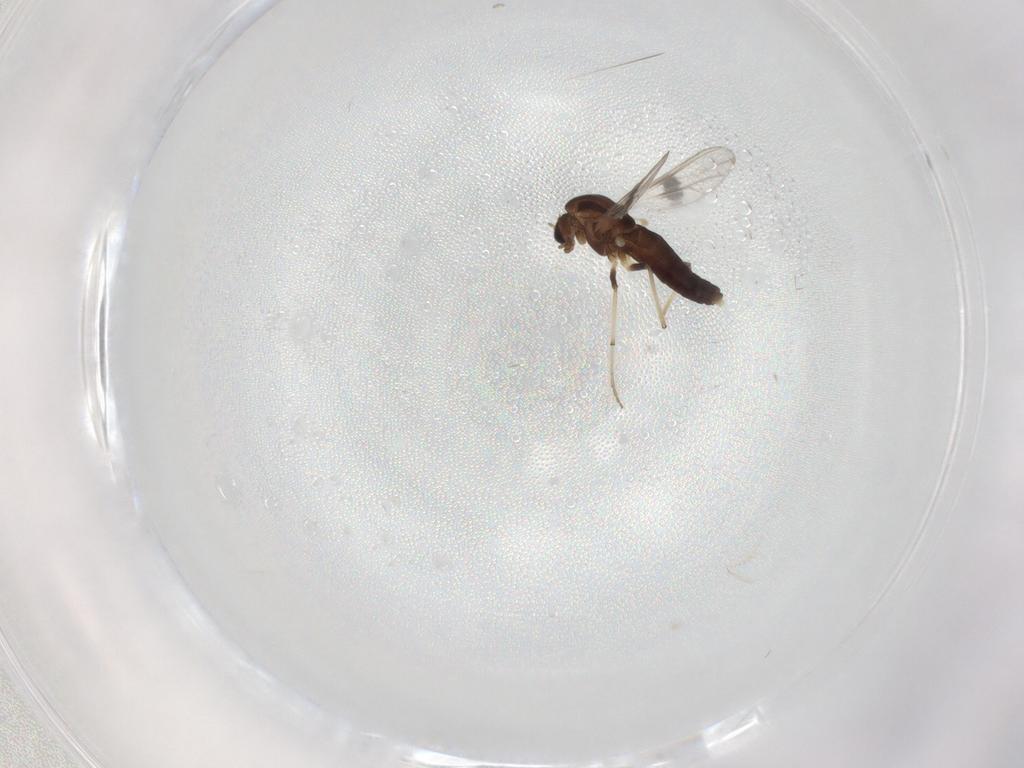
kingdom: Animalia
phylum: Arthropoda
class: Insecta
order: Diptera
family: Chironomidae
